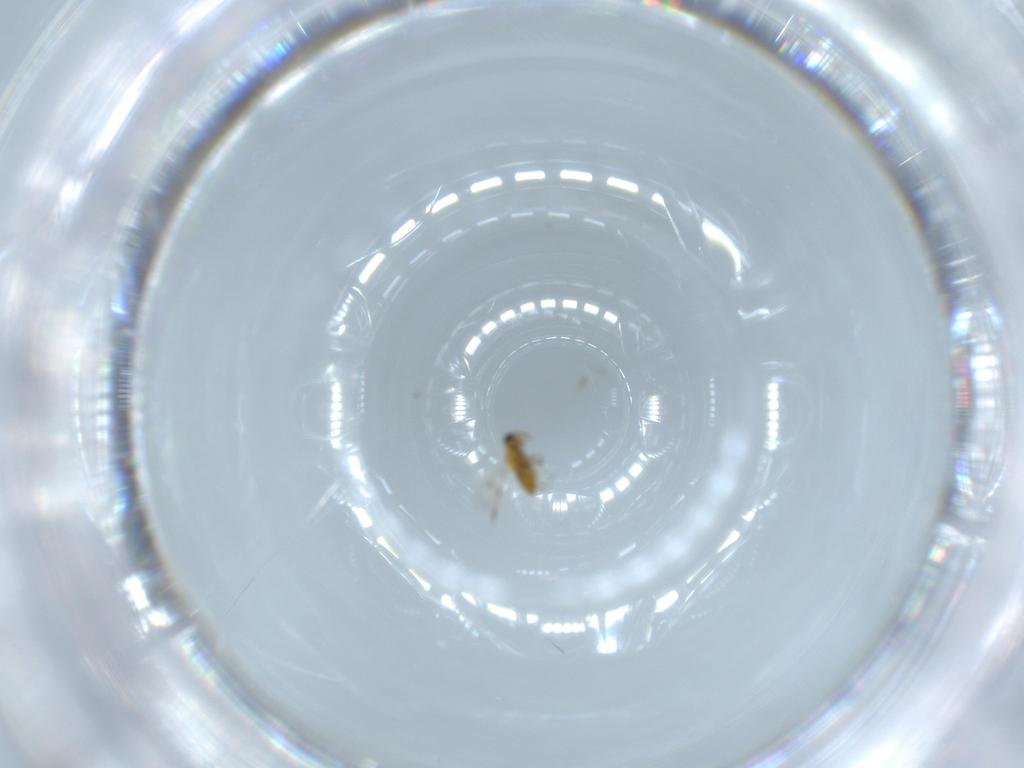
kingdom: Animalia
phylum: Arthropoda
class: Insecta
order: Hymenoptera
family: Trichogrammatidae
